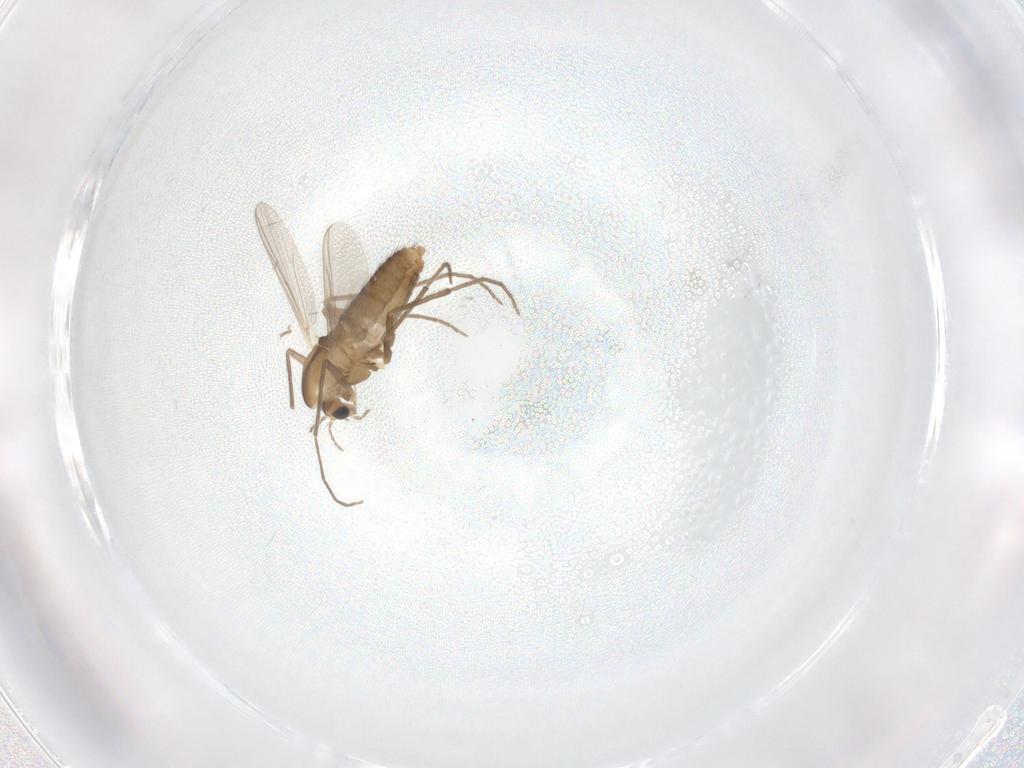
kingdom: Animalia
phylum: Arthropoda
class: Insecta
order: Diptera
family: Chironomidae
